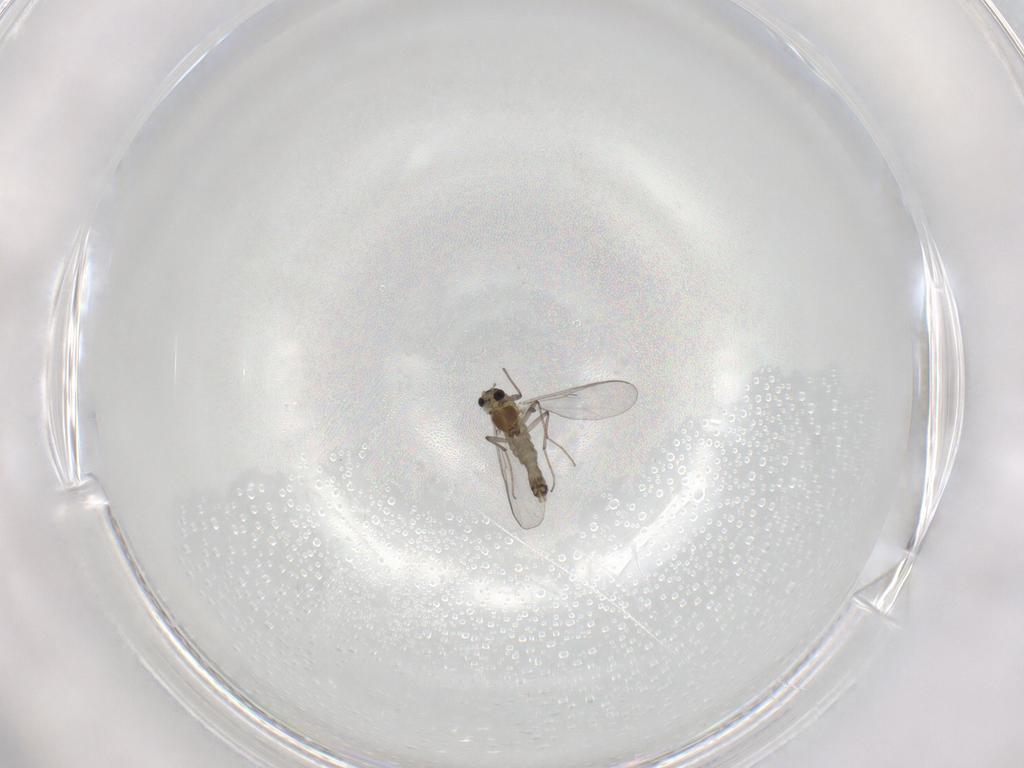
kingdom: Animalia
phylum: Arthropoda
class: Insecta
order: Diptera
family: Chironomidae
